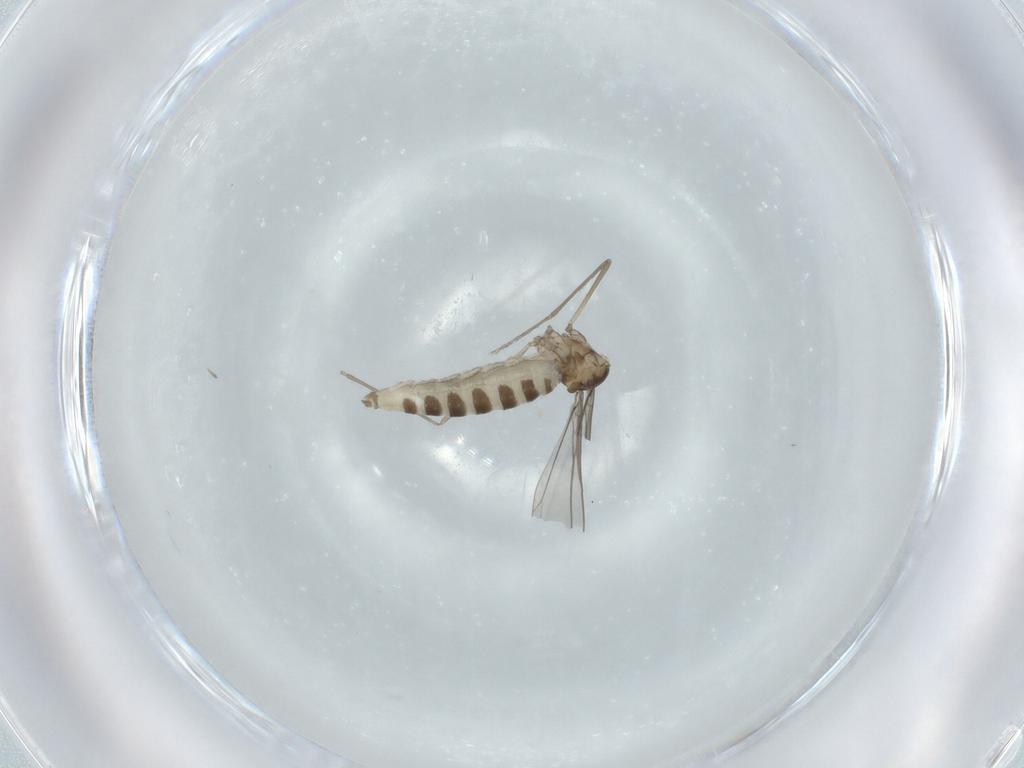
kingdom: Animalia
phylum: Arthropoda
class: Insecta
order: Diptera
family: Cecidomyiidae
